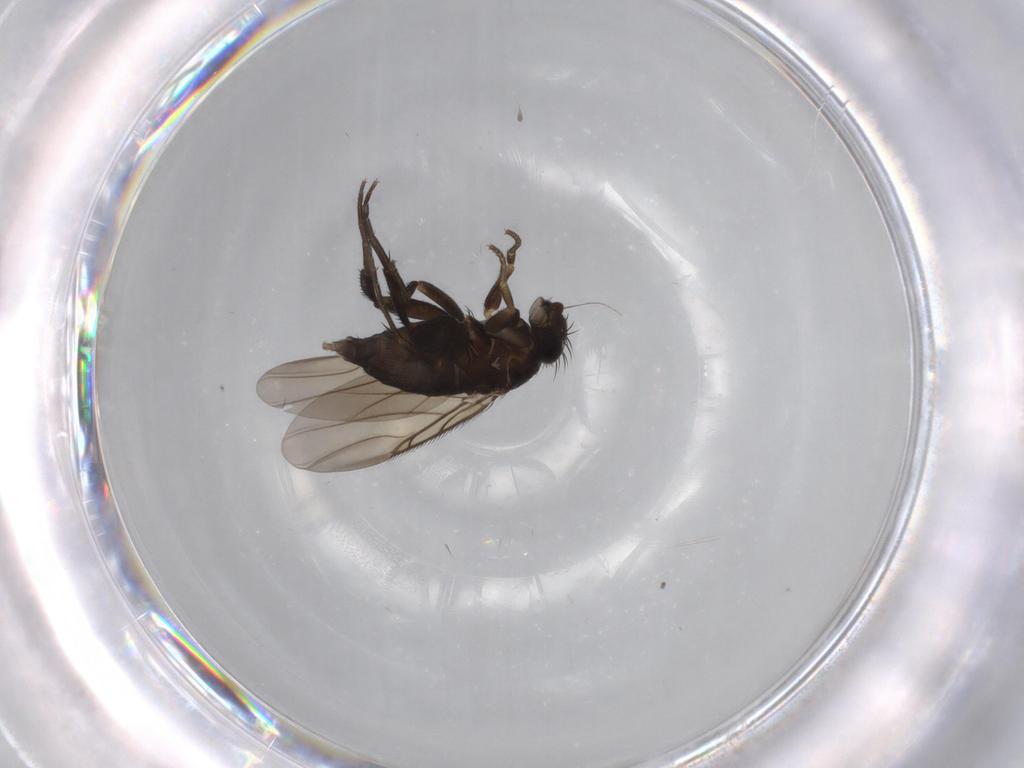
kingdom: Animalia
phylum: Arthropoda
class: Insecta
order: Diptera
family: Phoridae
